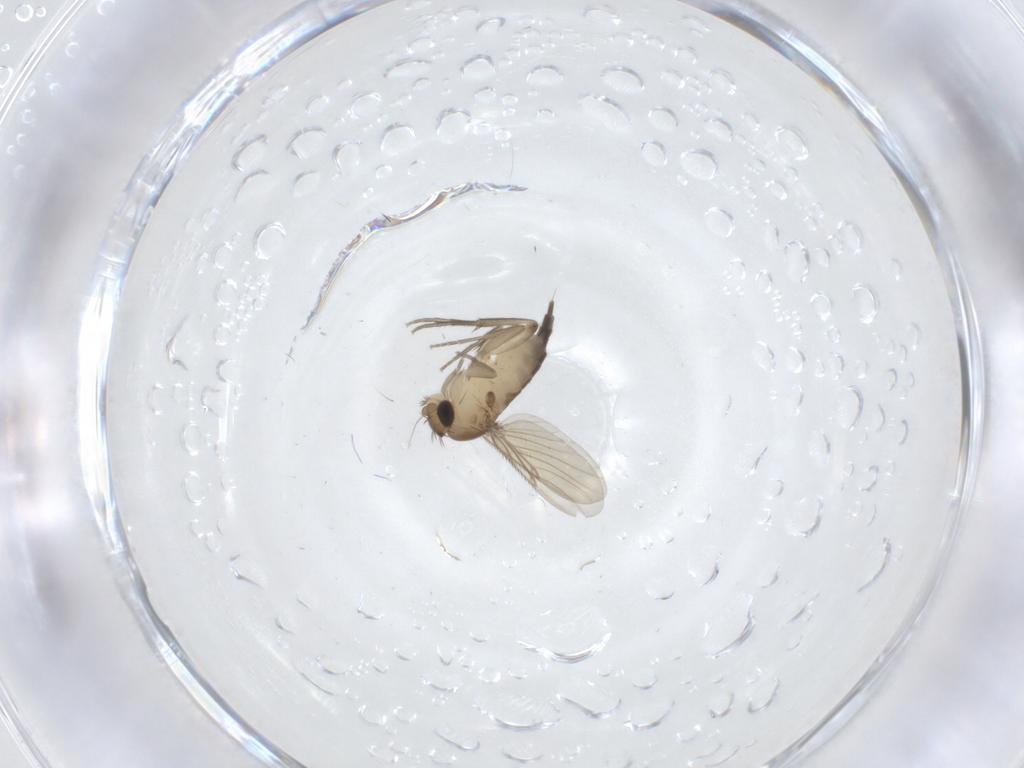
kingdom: Animalia
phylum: Arthropoda
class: Insecta
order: Diptera
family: Phoridae
